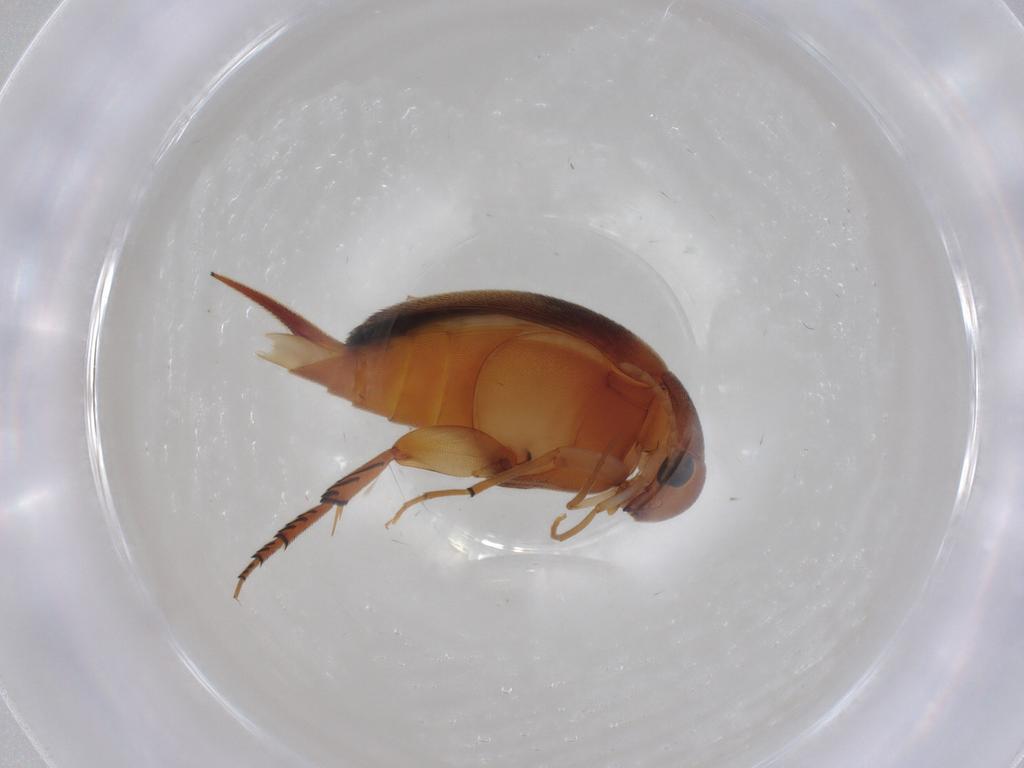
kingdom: Animalia
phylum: Arthropoda
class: Insecta
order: Coleoptera
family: Mordellidae
